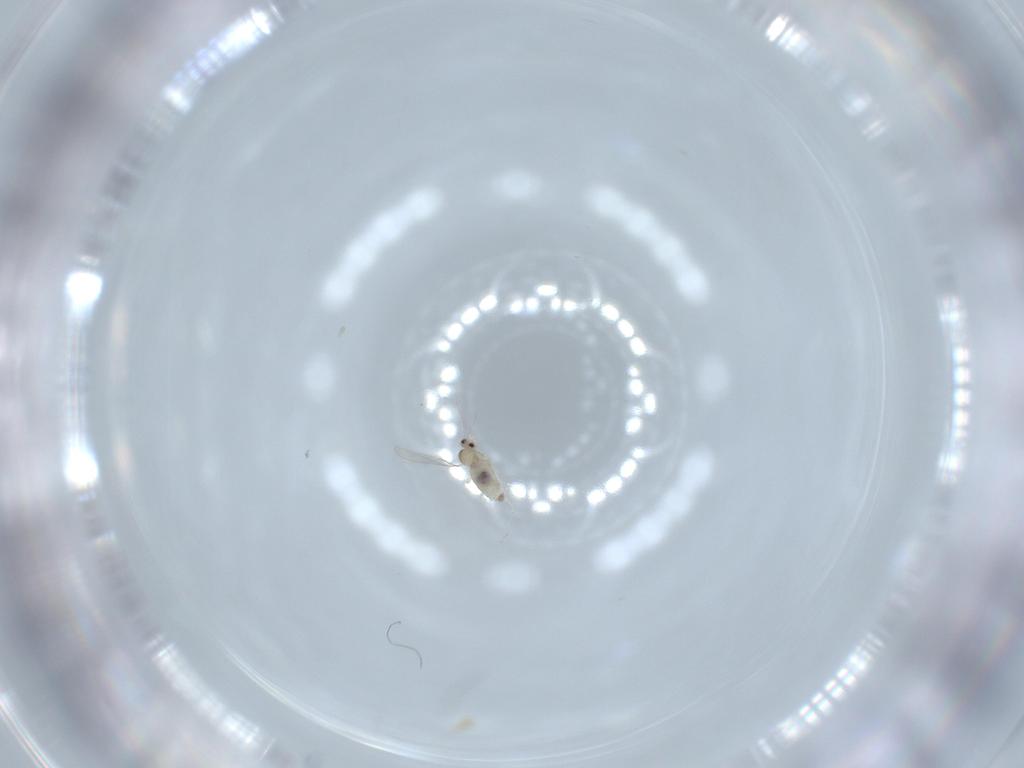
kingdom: Animalia
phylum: Arthropoda
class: Insecta
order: Diptera
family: Cecidomyiidae
